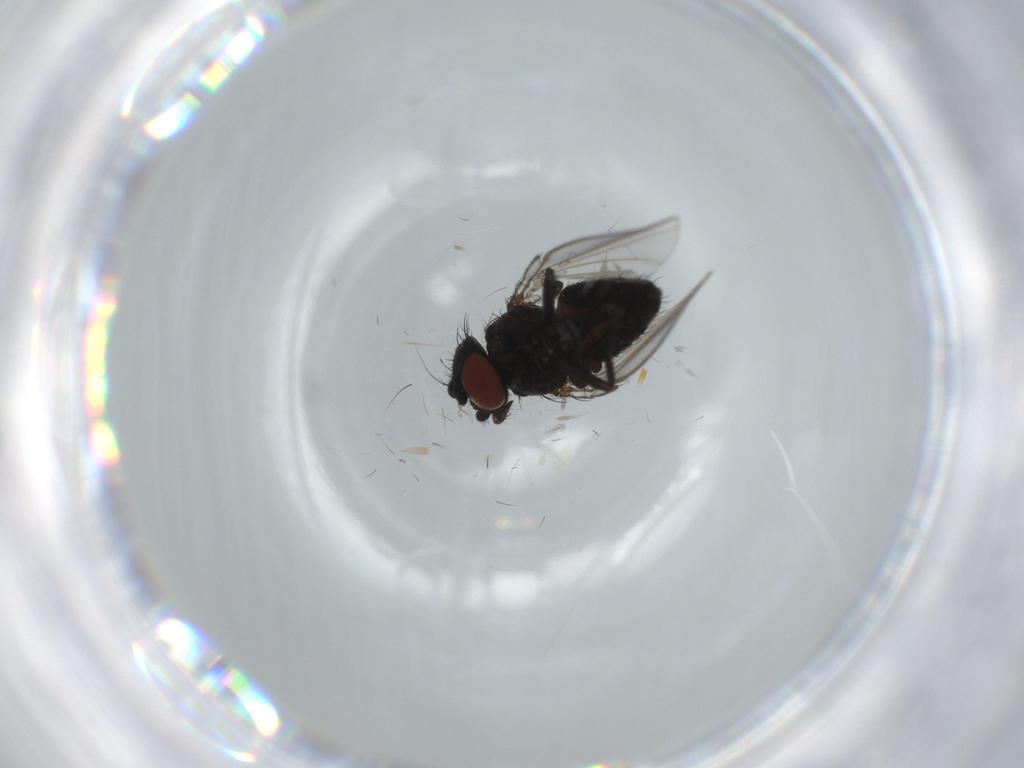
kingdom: Animalia
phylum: Arthropoda
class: Insecta
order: Diptera
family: Milichiidae
